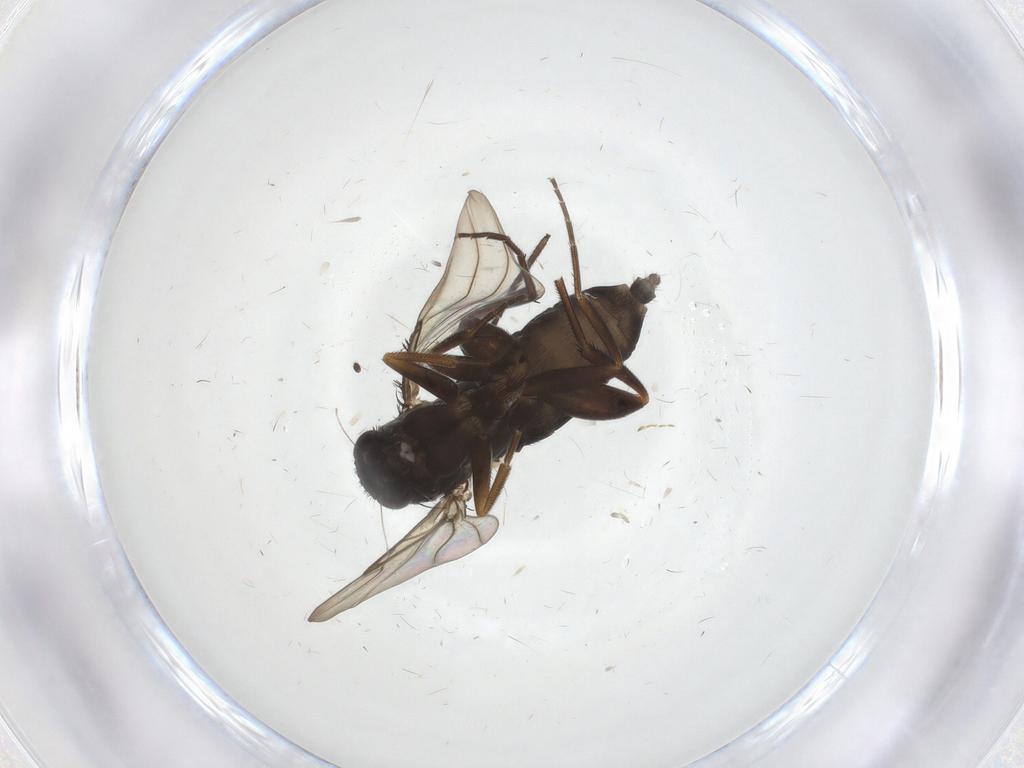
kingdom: Animalia
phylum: Arthropoda
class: Insecta
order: Diptera
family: Phoridae
